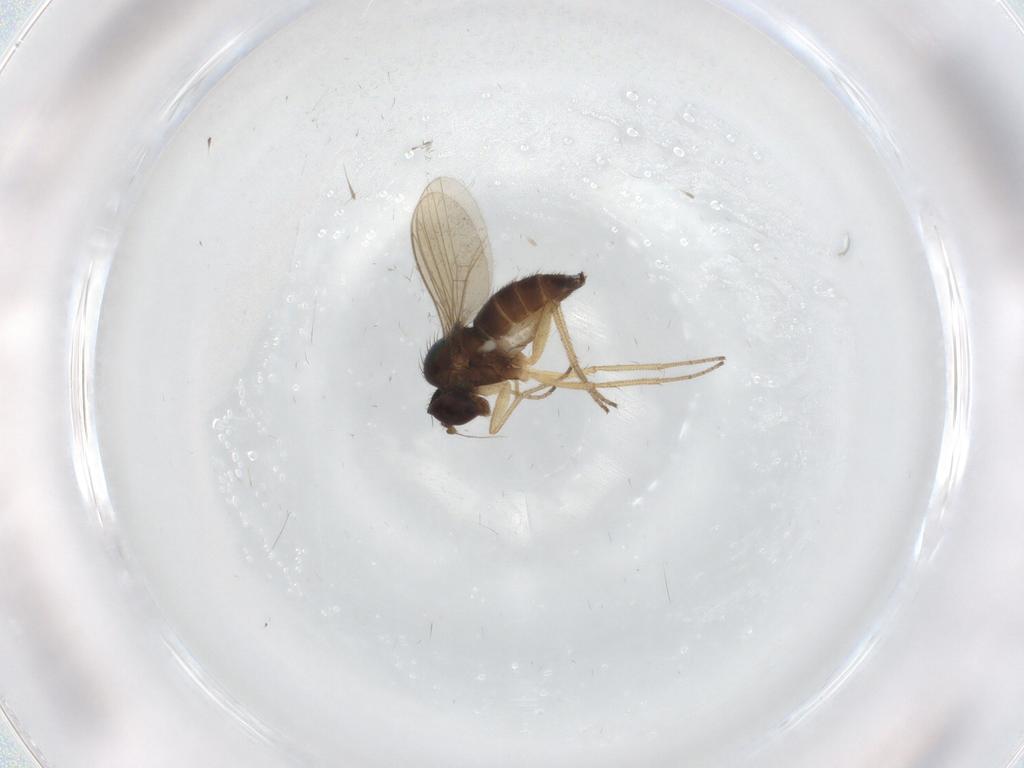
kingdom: Animalia
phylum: Arthropoda
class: Insecta
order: Diptera
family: Dolichopodidae
